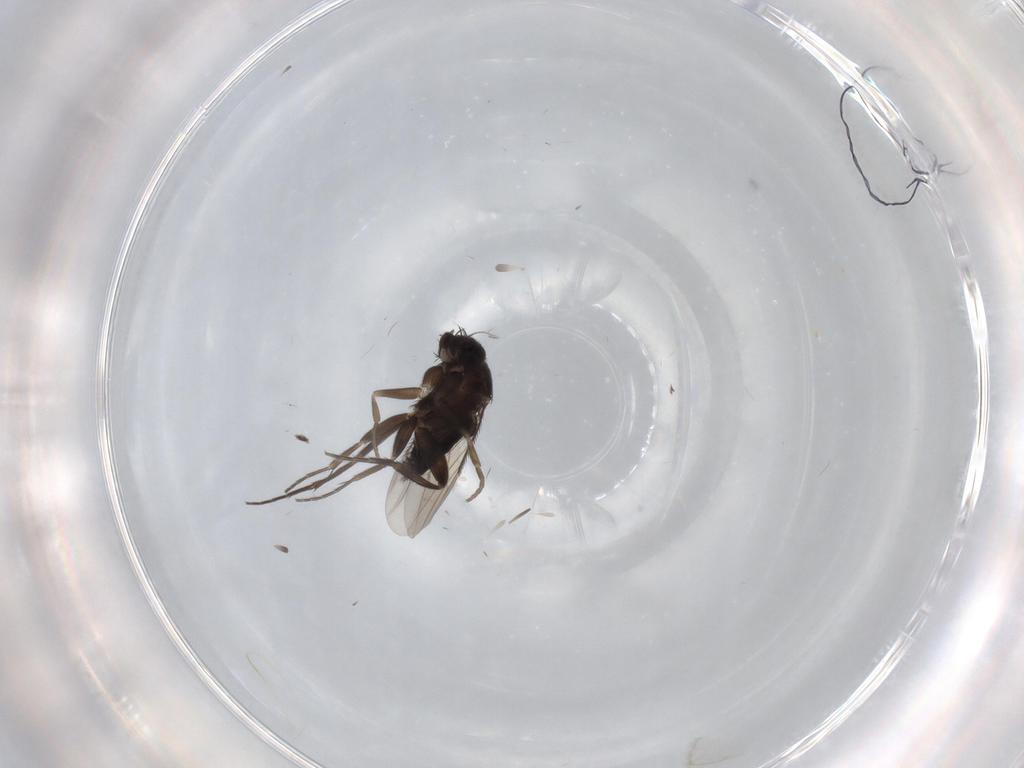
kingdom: Animalia
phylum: Arthropoda
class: Insecta
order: Diptera
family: Phoridae
